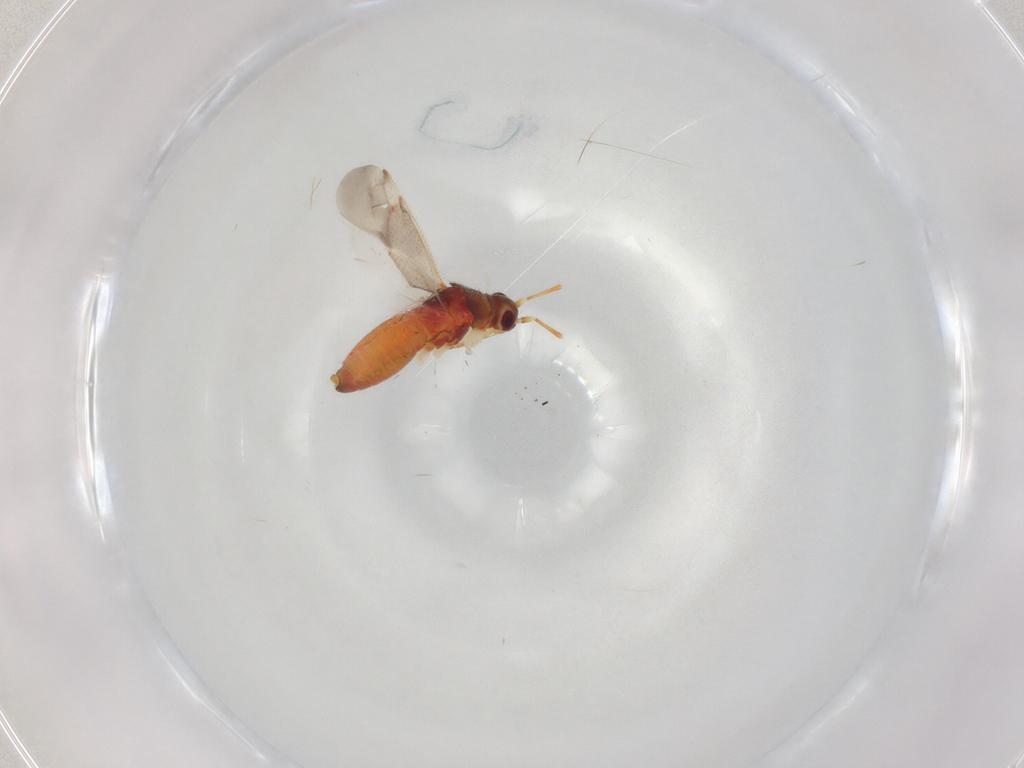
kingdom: Animalia
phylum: Arthropoda
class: Insecta
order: Hemiptera
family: Miridae
